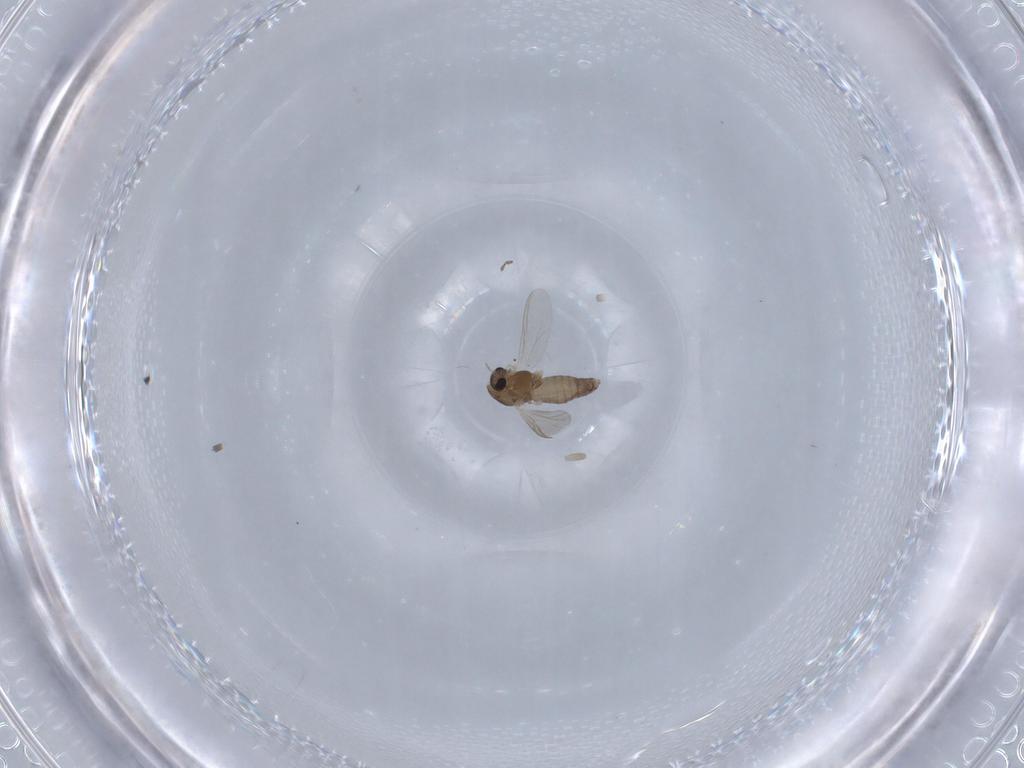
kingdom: Animalia
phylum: Arthropoda
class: Insecta
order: Diptera
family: Chironomidae
